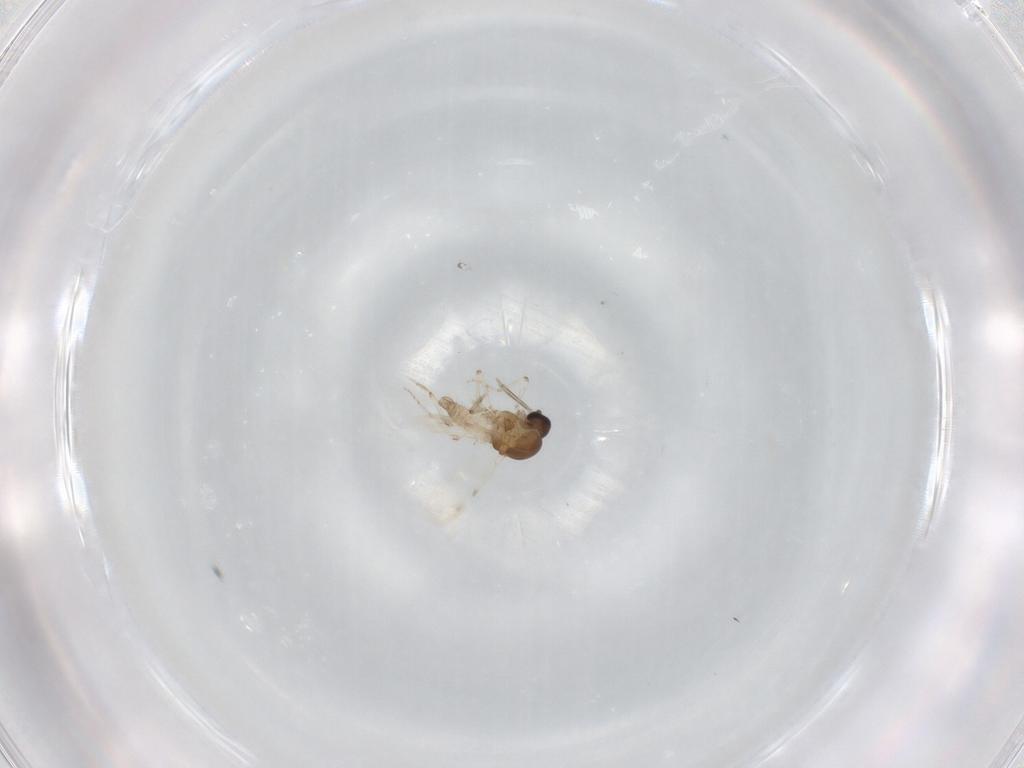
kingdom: Animalia
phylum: Arthropoda
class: Insecta
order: Diptera
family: Ceratopogonidae
